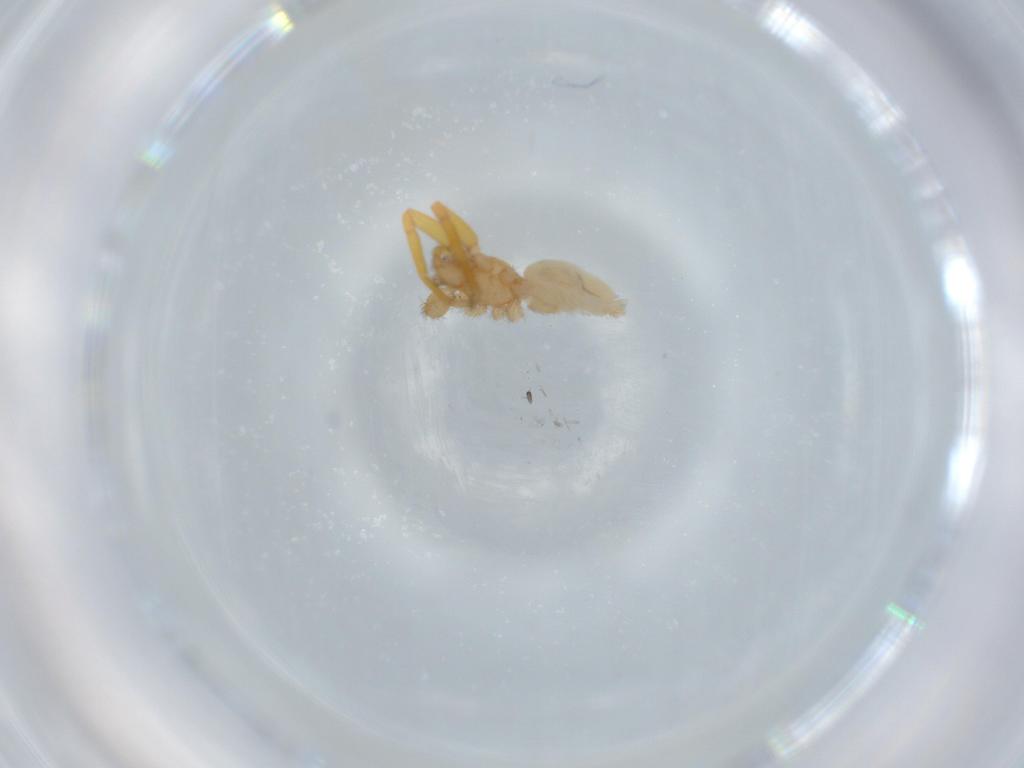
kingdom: Animalia
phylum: Arthropoda
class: Arachnida
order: Araneae
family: Oonopidae
